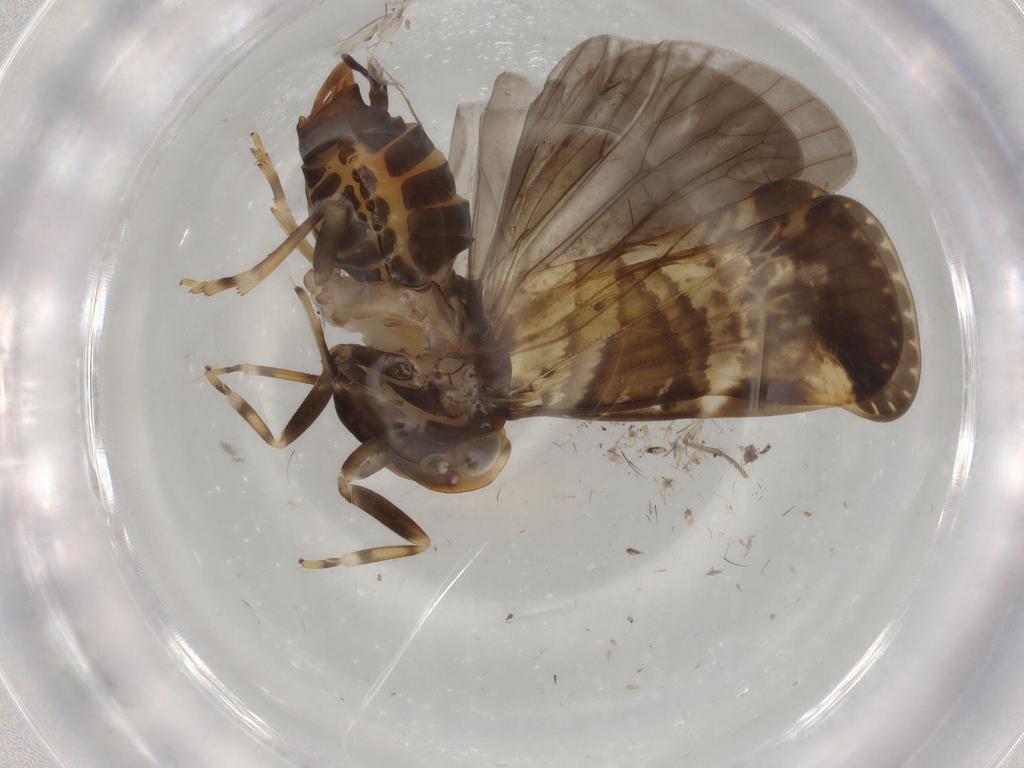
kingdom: Animalia
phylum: Arthropoda
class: Insecta
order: Hemiptera
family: Cixiidae
